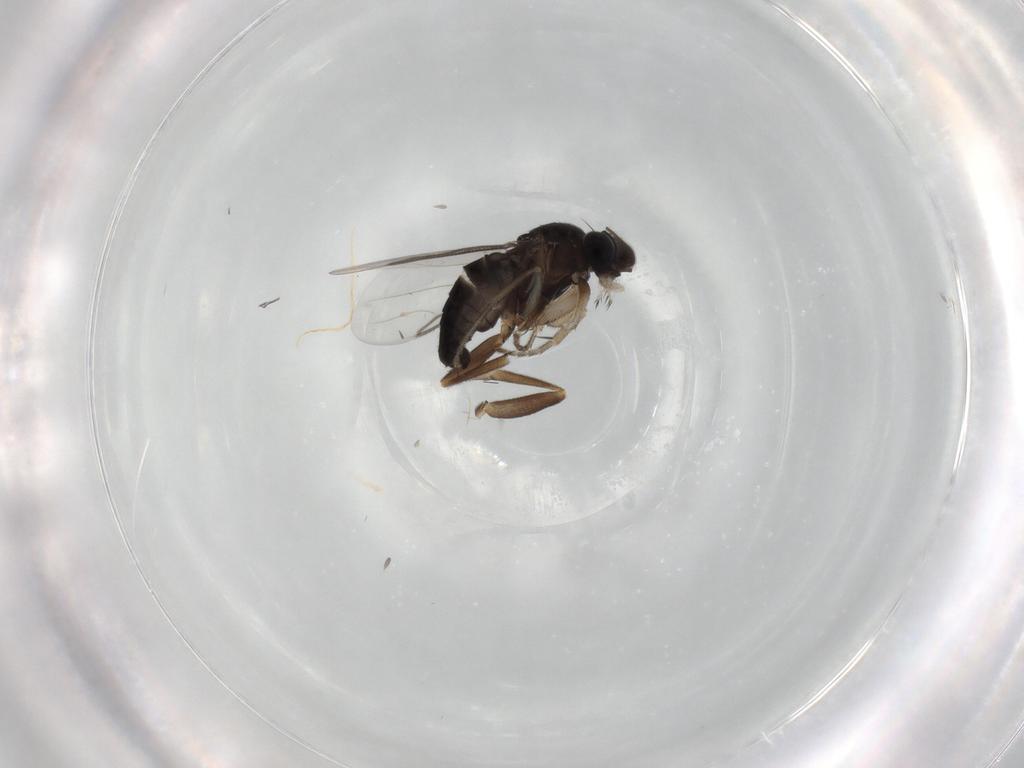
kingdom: Animalia
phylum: Arthropoda
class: Insecta
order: Diptera
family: Phoridae
